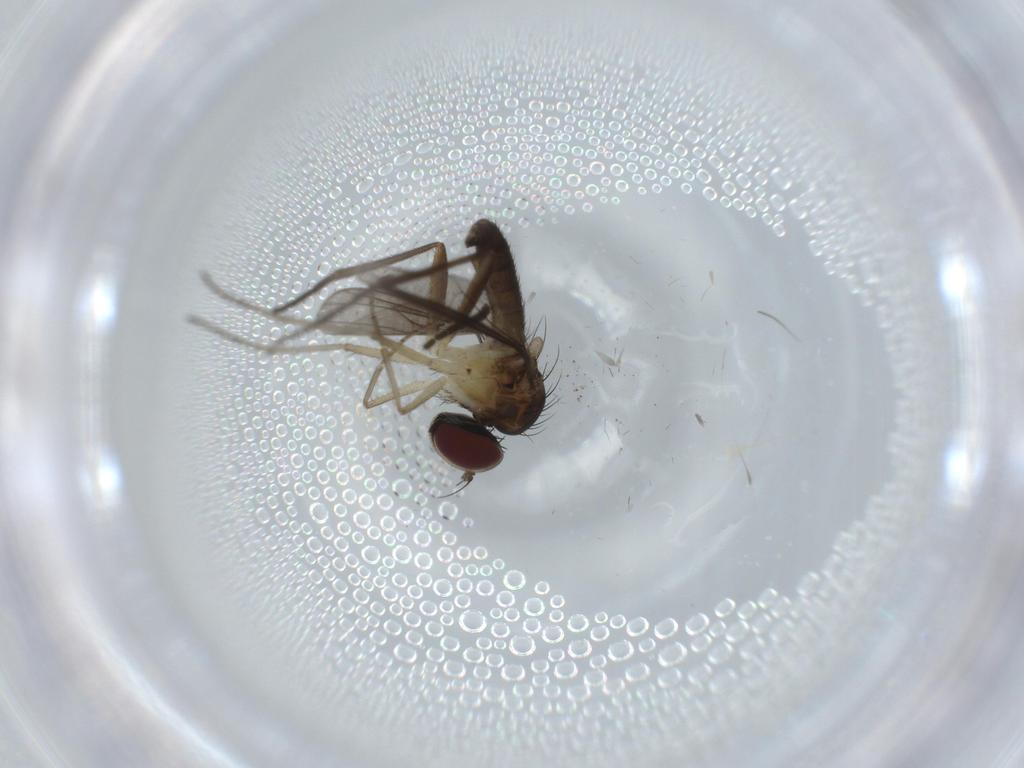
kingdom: Animalia
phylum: Arthropoda
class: Insecta
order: Diptera
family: Sciaridae
